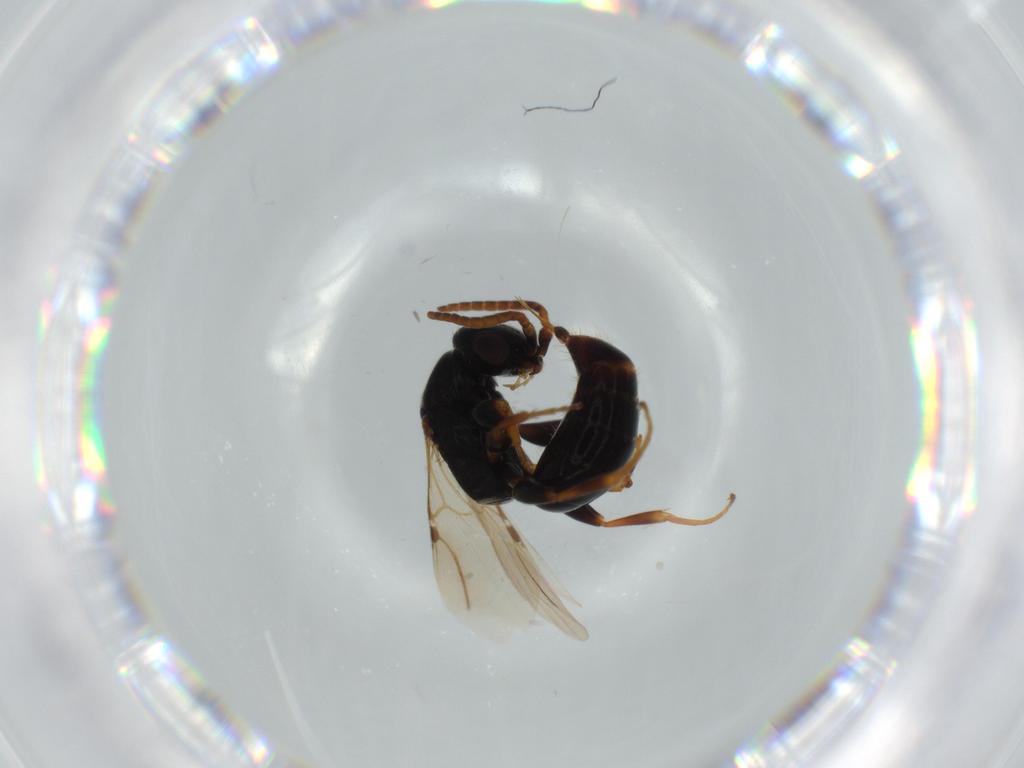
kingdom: Animalia
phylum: Arthropoda
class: Insecta
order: Hymenoptera
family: Bethylidae
